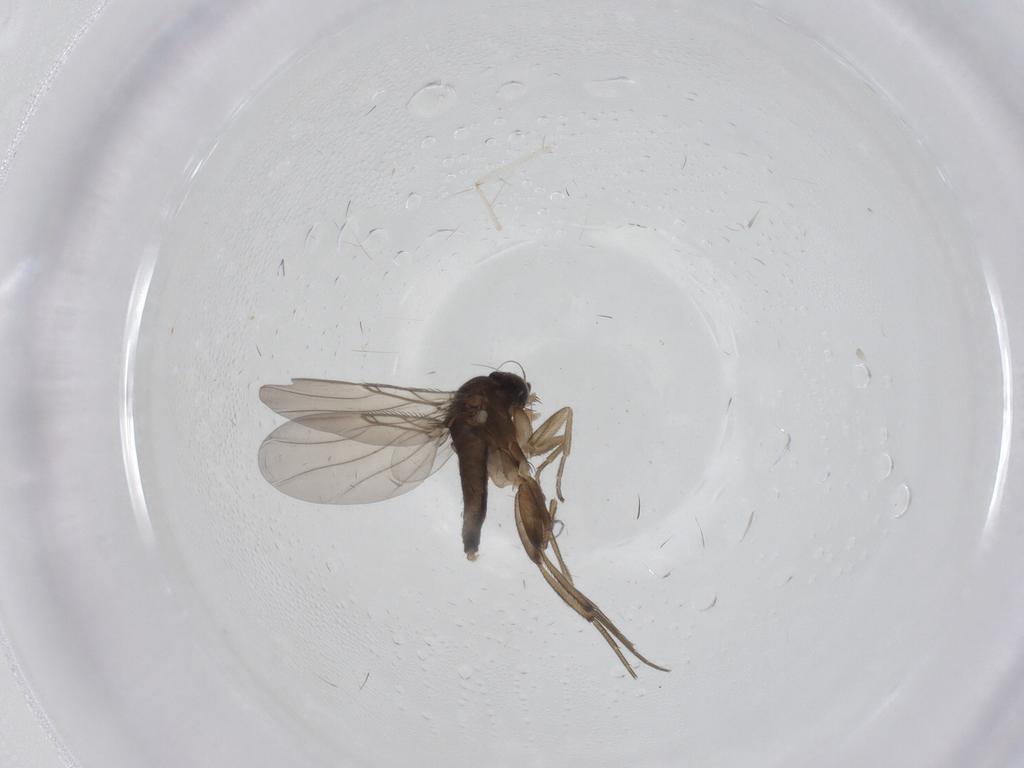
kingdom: Animalia
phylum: Arthropoda
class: Insecta
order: Diptera
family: Chironomidae
